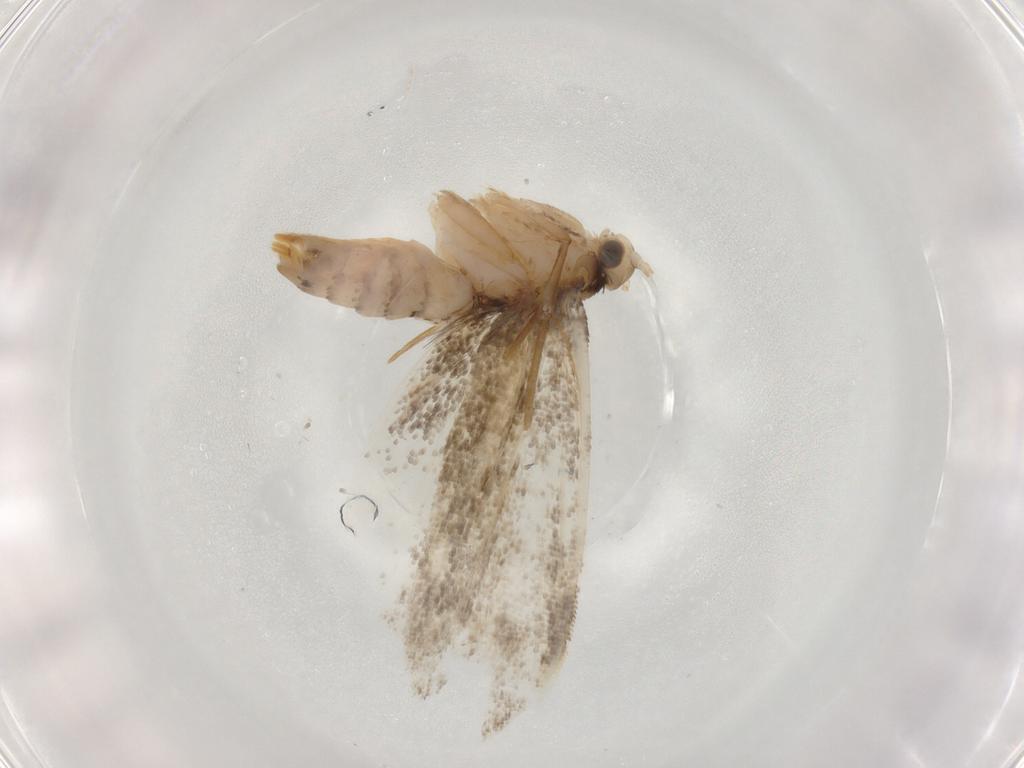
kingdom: Animalia
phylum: Arthropoda
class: Insecta
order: Lepidoptera
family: Dryadaulidae
